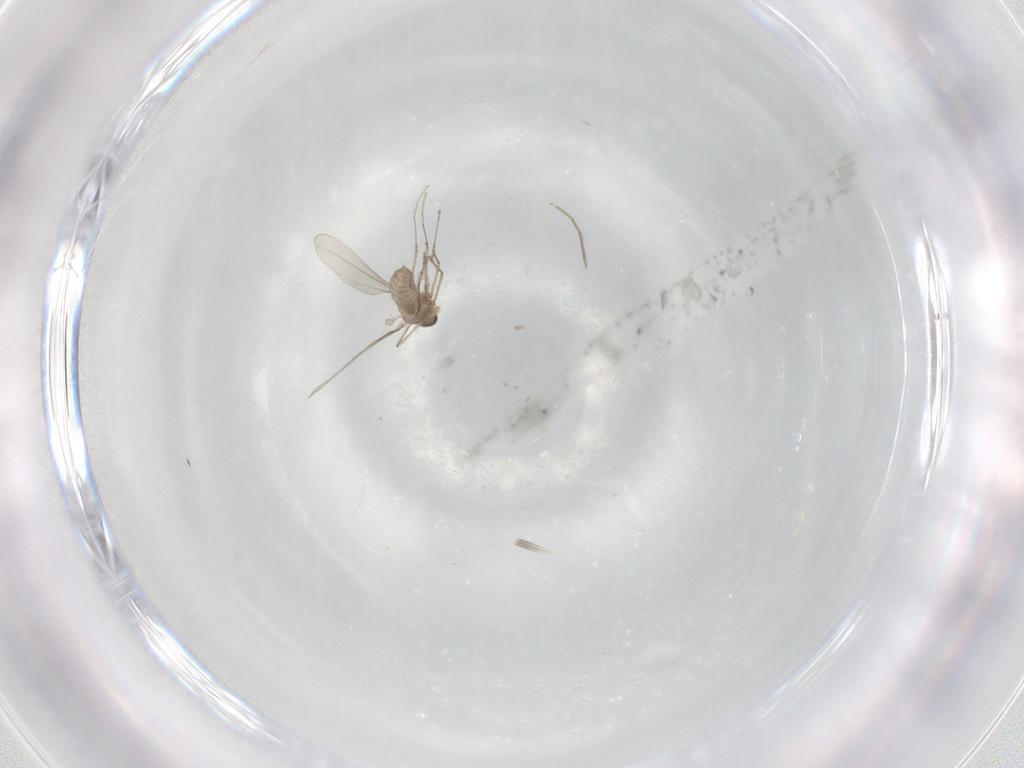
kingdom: Animalia
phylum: Arthropoda
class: Insecta
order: Diptera
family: Chironomidae
